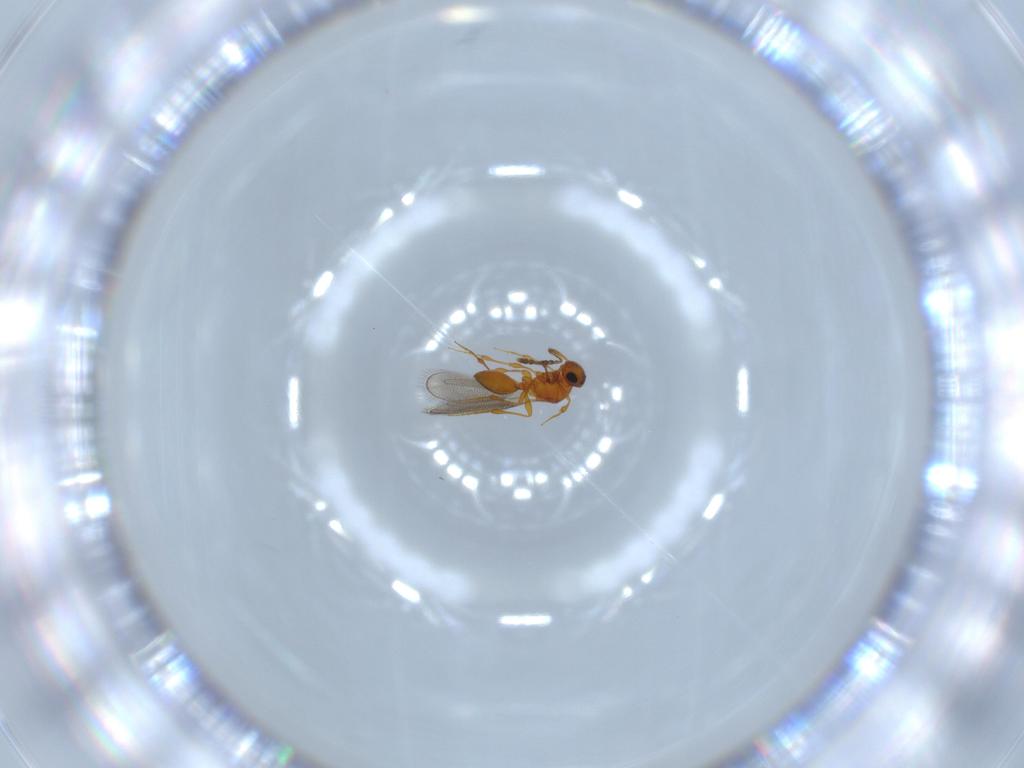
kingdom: Animalia
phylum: Arthropoda
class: Insecta
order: Hymenoptera
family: Platygastridae
